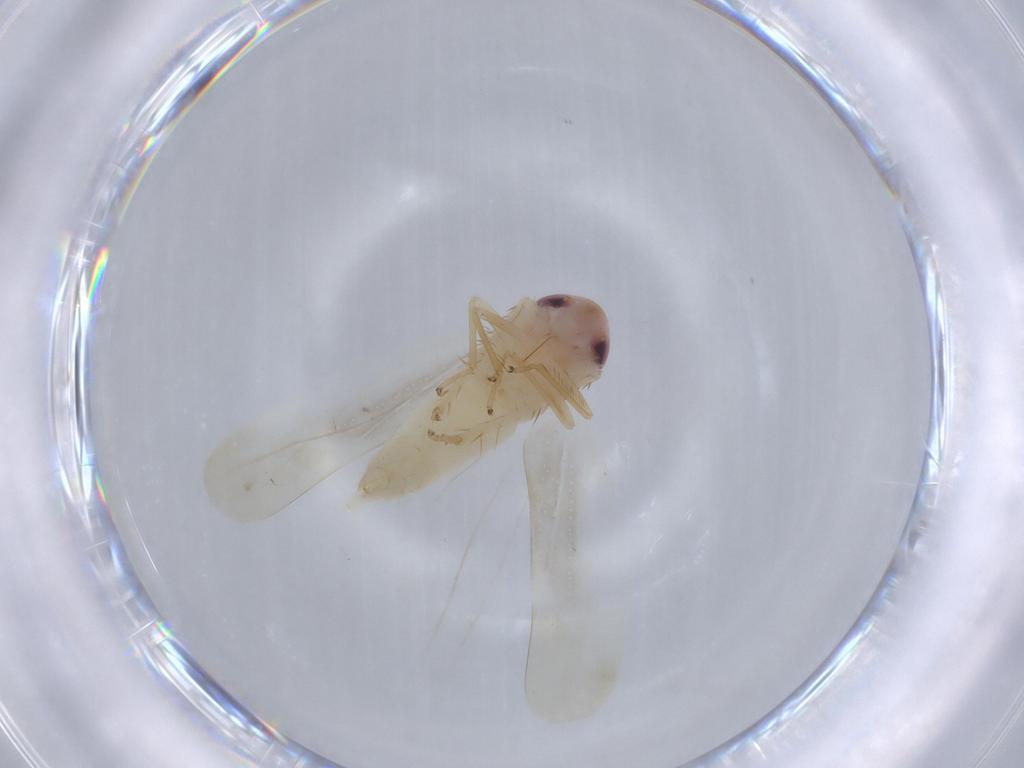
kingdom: Animalia
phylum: Arthropoda
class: Insecta
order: Hemiptera
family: Cicadellidae
